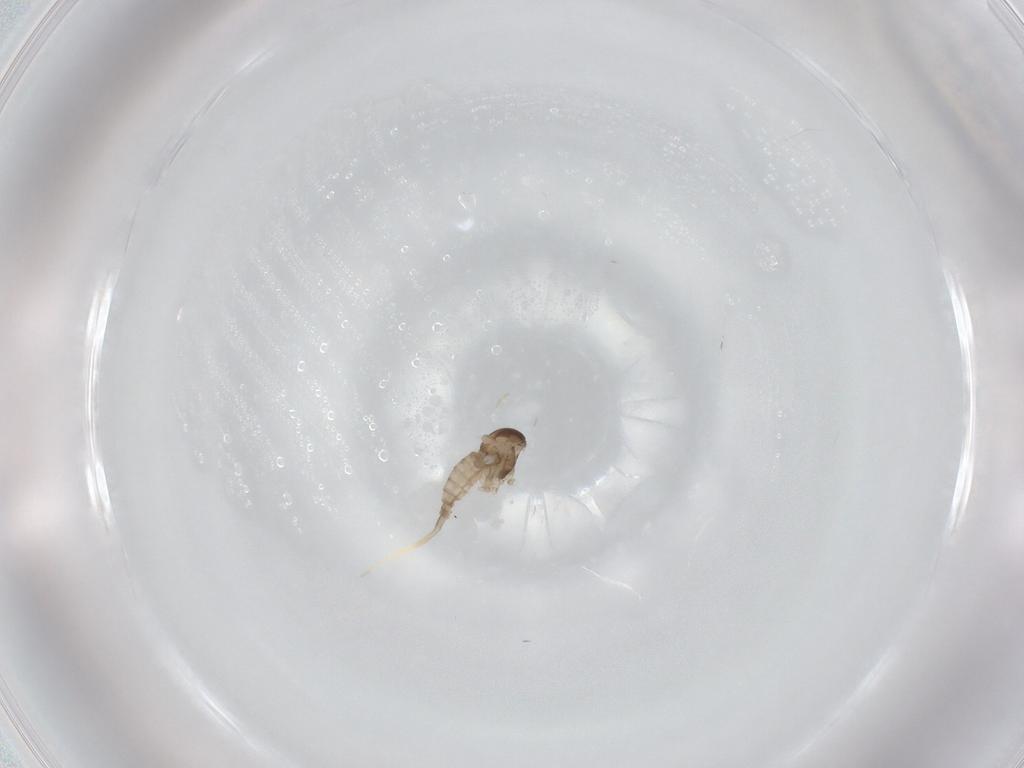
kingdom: Animalia
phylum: Arthropoda
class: Insecta
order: Diptera
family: Cecidomyiidae
